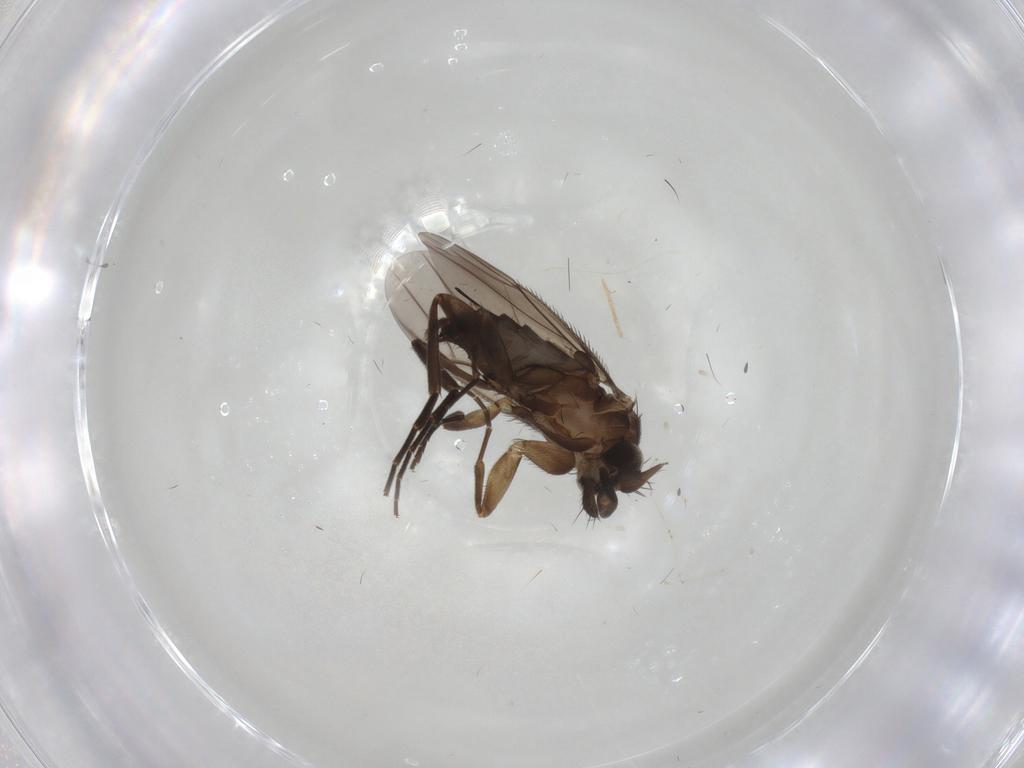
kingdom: Animalia
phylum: Arthropoda
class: Insecta
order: Diptera
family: Phoridae
